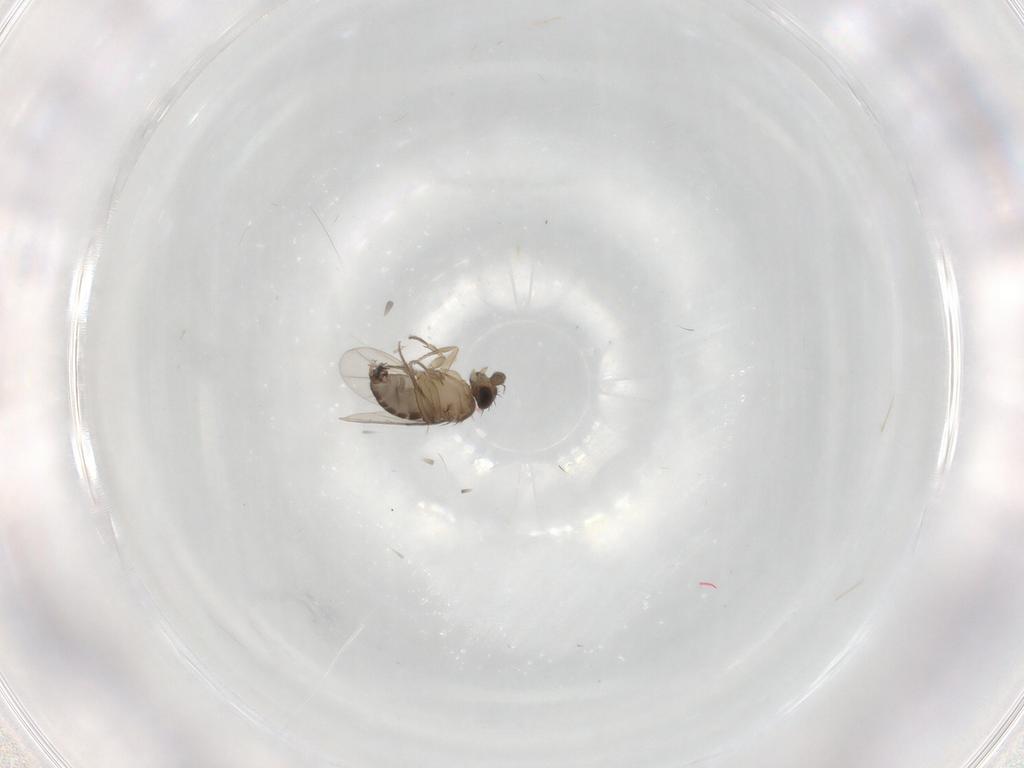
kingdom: Animalia
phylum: Arthropoda
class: Insecta
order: Diptera
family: Phoridae
